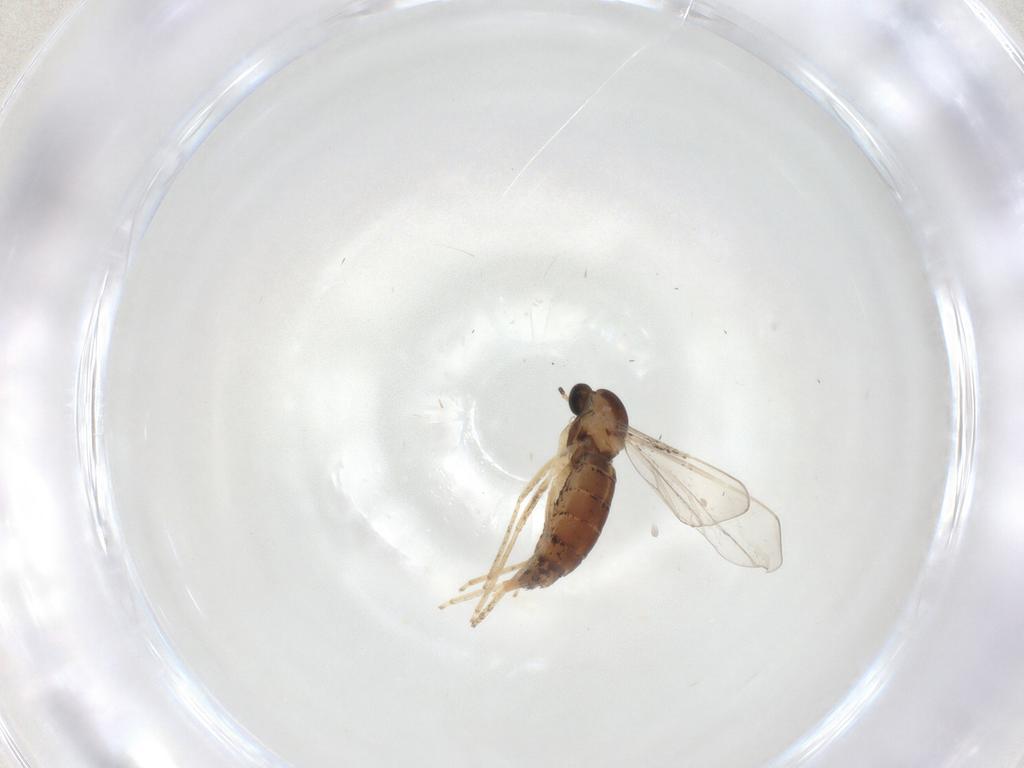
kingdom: Animalia
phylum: Arthropoda
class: Insecta
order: Diptera
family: Cecidomyiidae
